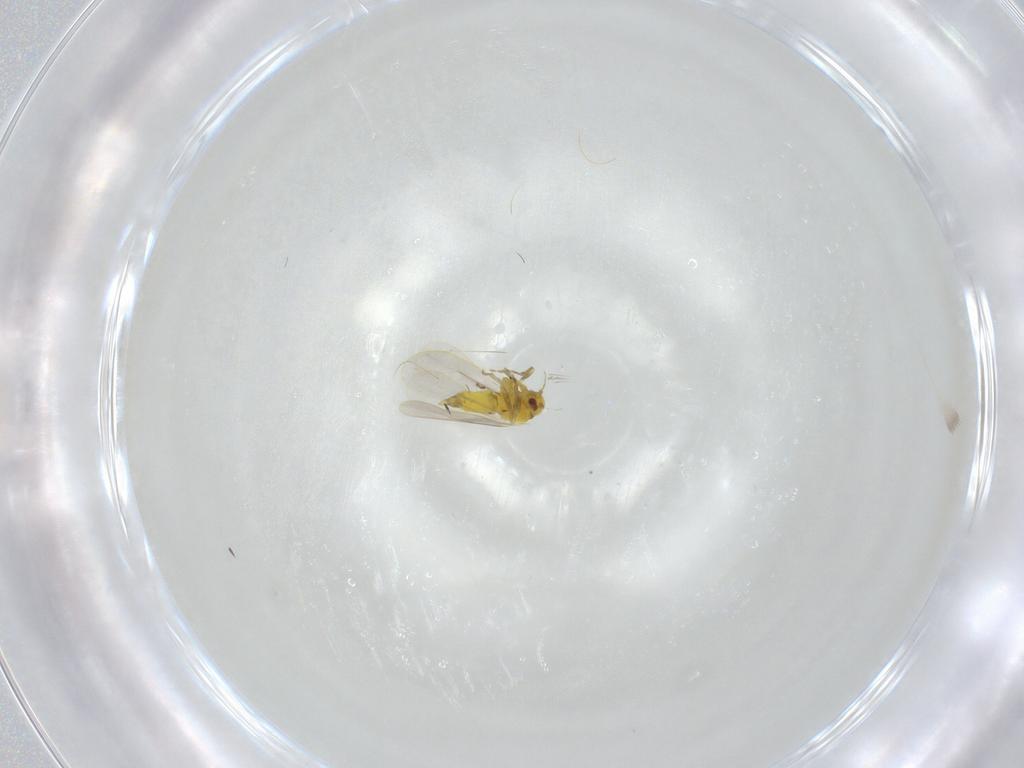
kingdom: Animalia
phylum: Arthropoda
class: Insecta
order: Hemiptera
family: Aleyrodidae
